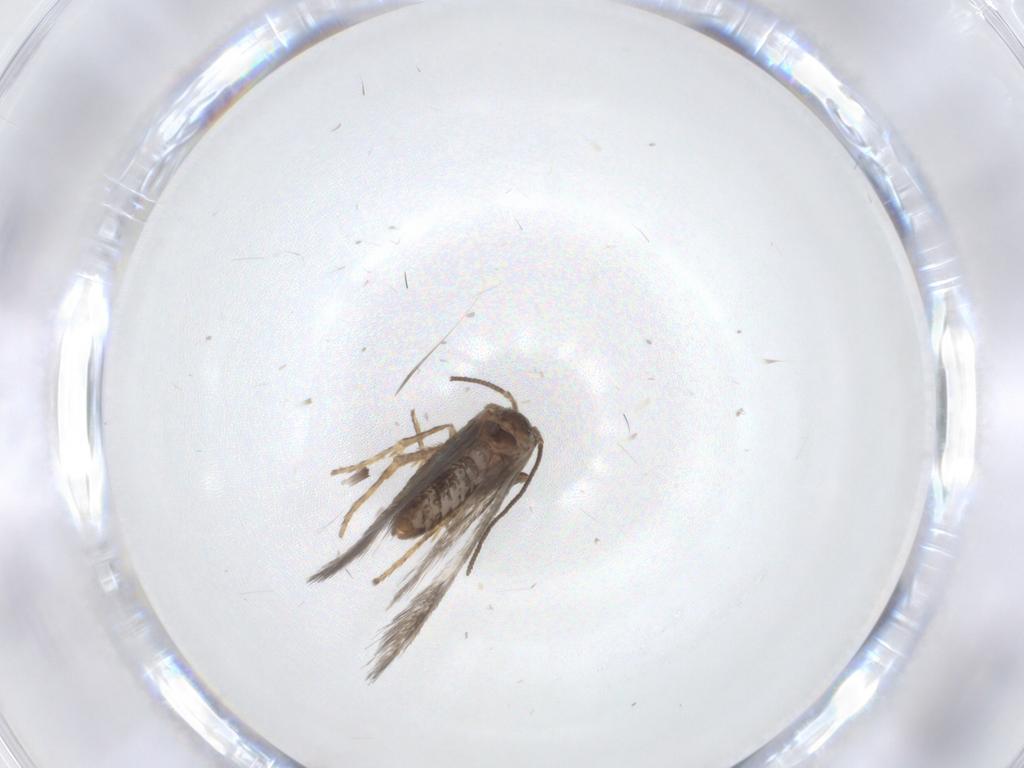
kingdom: Animalia
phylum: Arthropoda
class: Insecta
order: Lepidoptera
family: Nepticulidae
